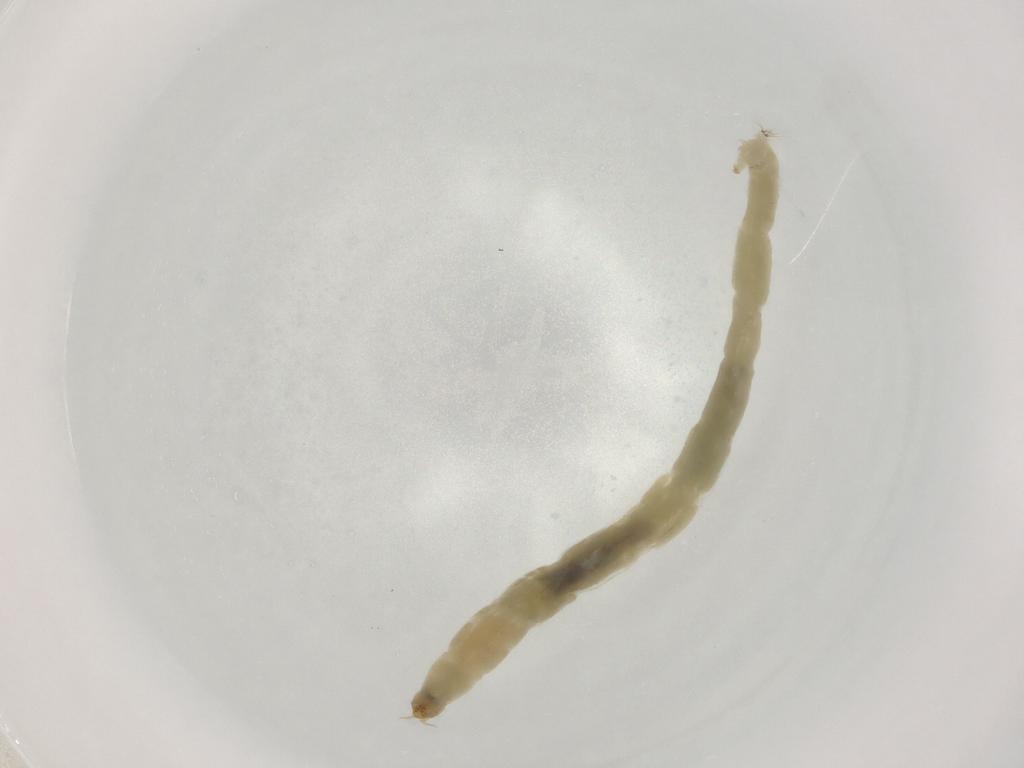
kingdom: Animalia
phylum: Arthropoda
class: Insecta
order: Diptera
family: Chironomidae
